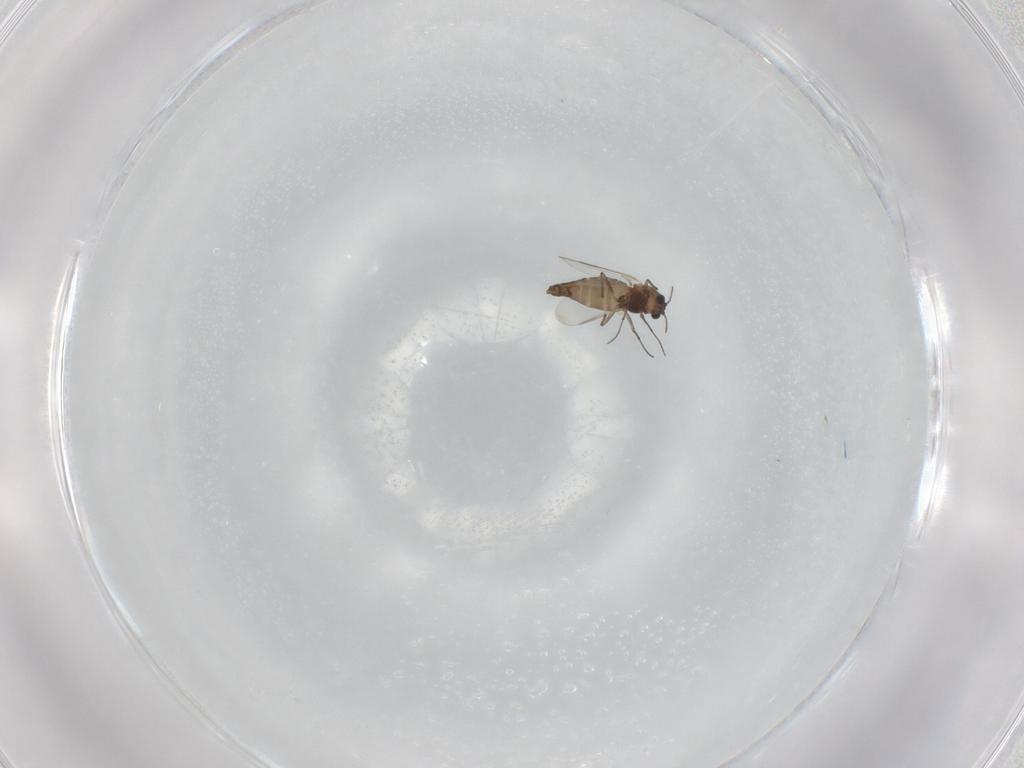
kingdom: Animalia
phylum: Arthropoda
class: Insecta
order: Diptera
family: Chironomidae
